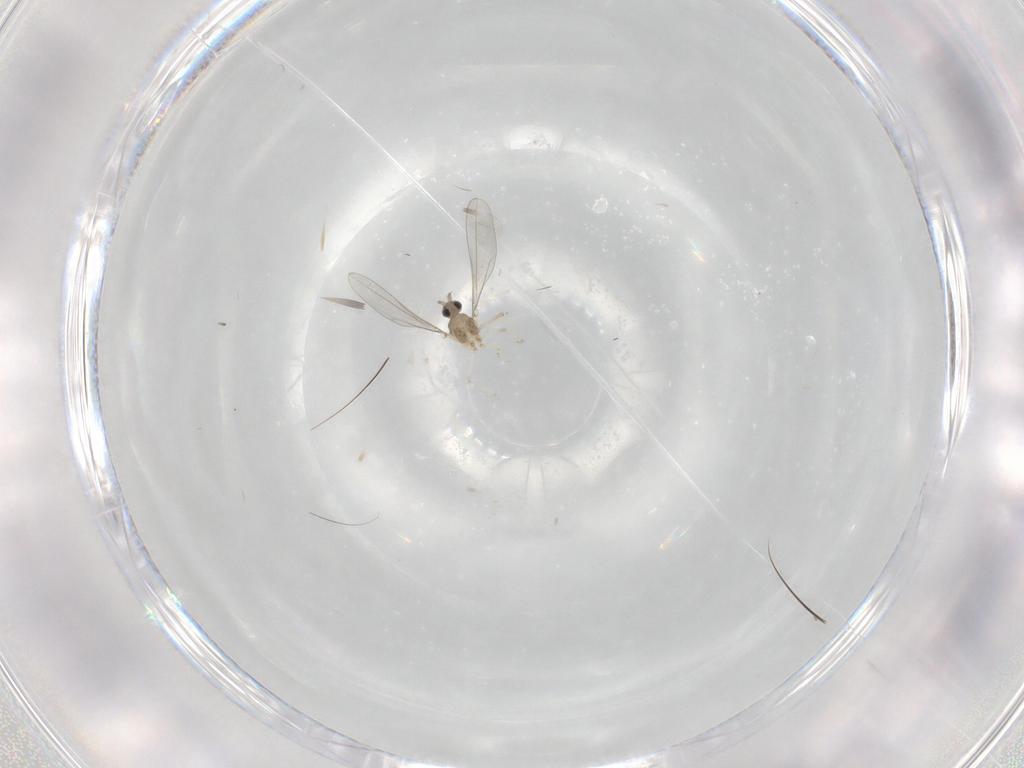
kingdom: Animalia
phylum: Arthropoda
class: Insecta
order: Diptera
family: Cecidomyiidae
